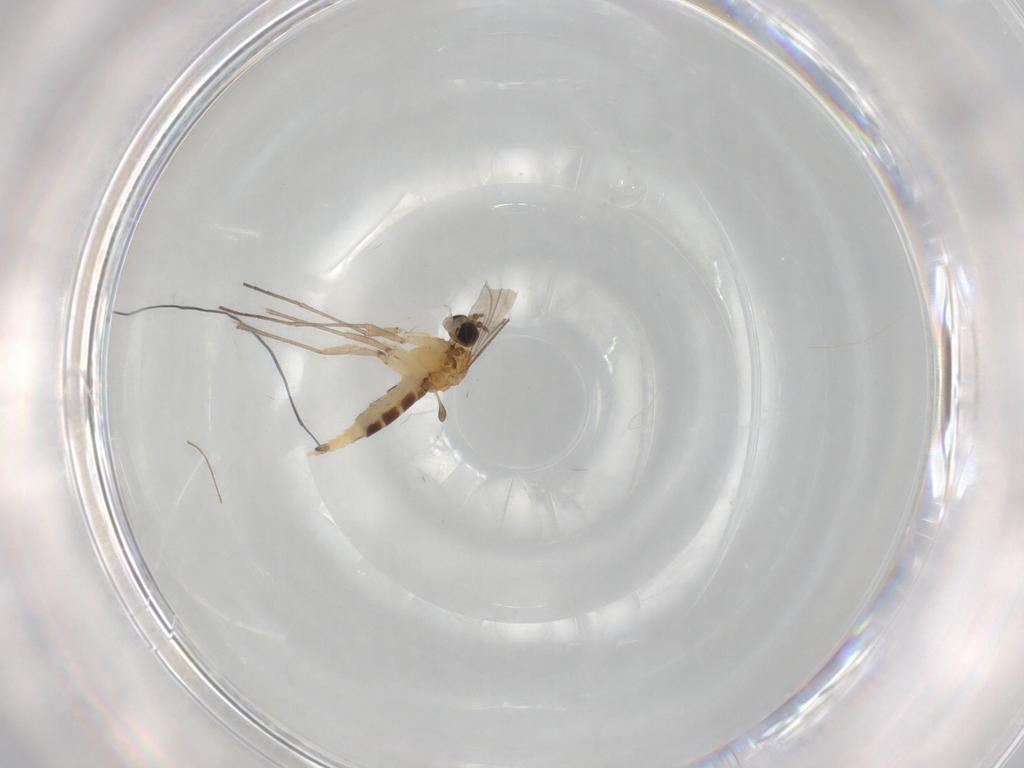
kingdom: Animalia
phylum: Arthropoda
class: Insecta
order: Diptera
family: Sciaridae
